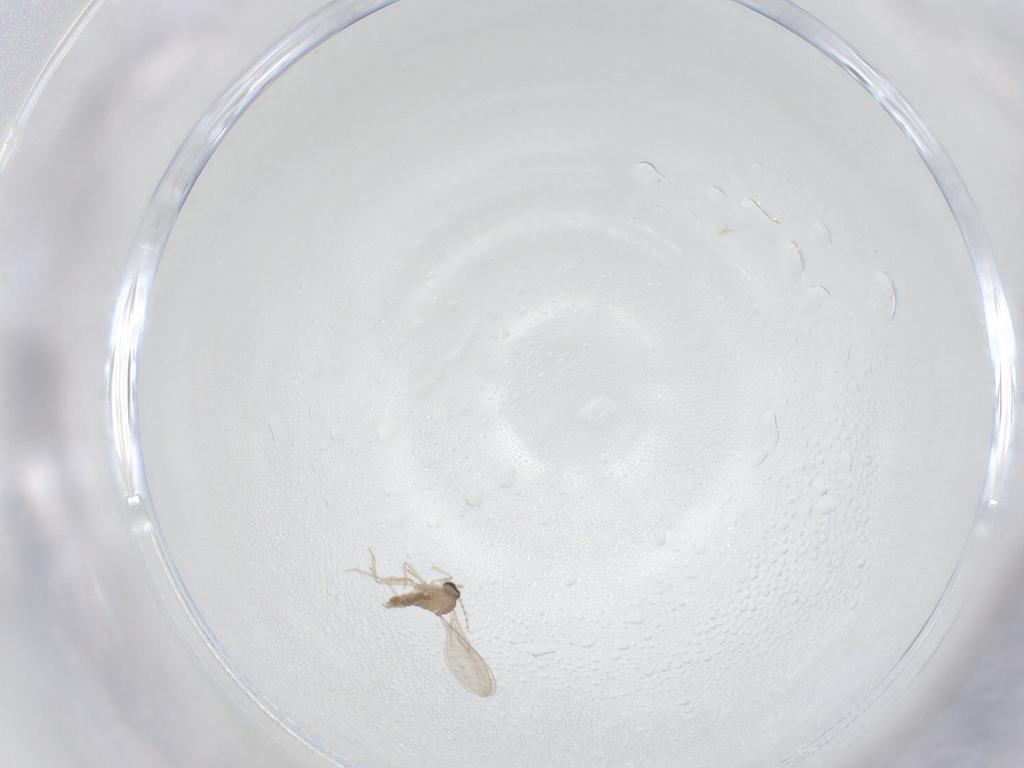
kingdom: Animalia
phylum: Arthropoda
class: Insecta
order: Diptera
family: Cecidomyiidae
